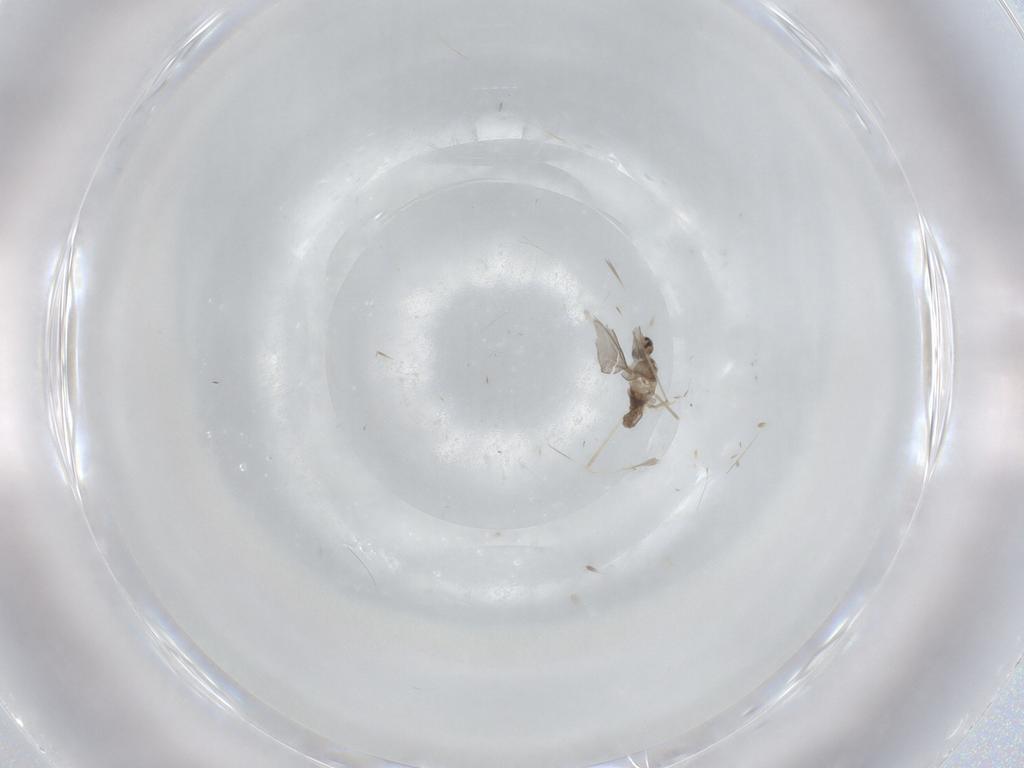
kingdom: Animalia
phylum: Arthropoda
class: Insecta
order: Diptera
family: Cecidomyiidae
